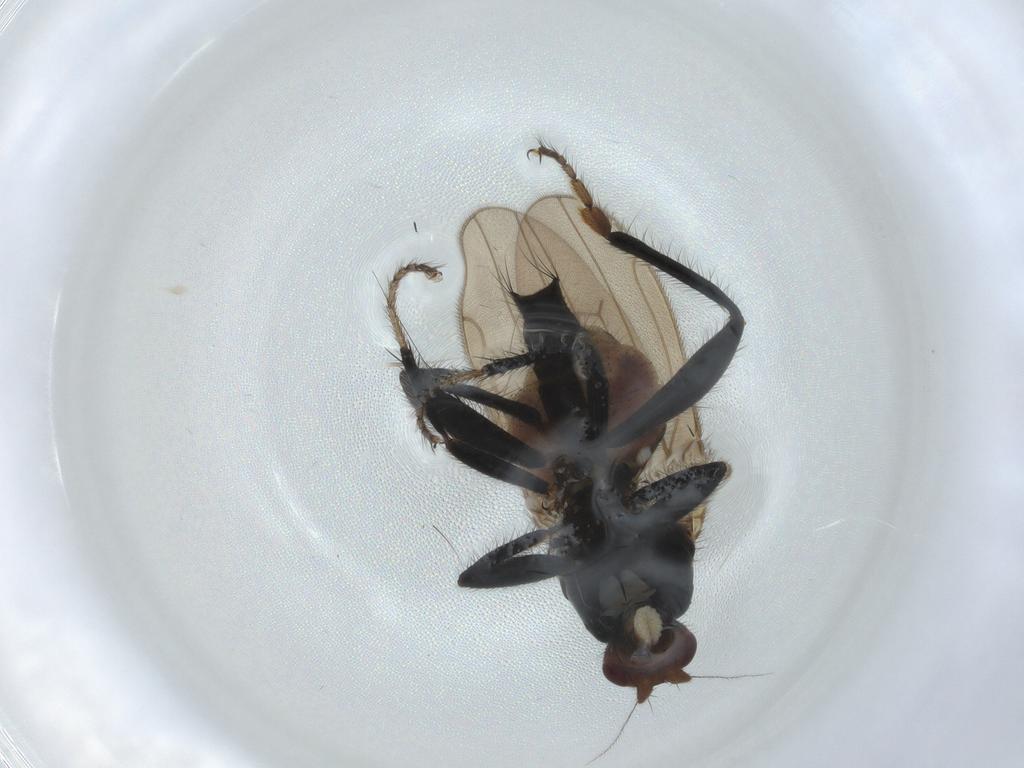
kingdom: Animalia
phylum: Arthropoda
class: Insecta
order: Diptera
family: Sphaeroceridae
